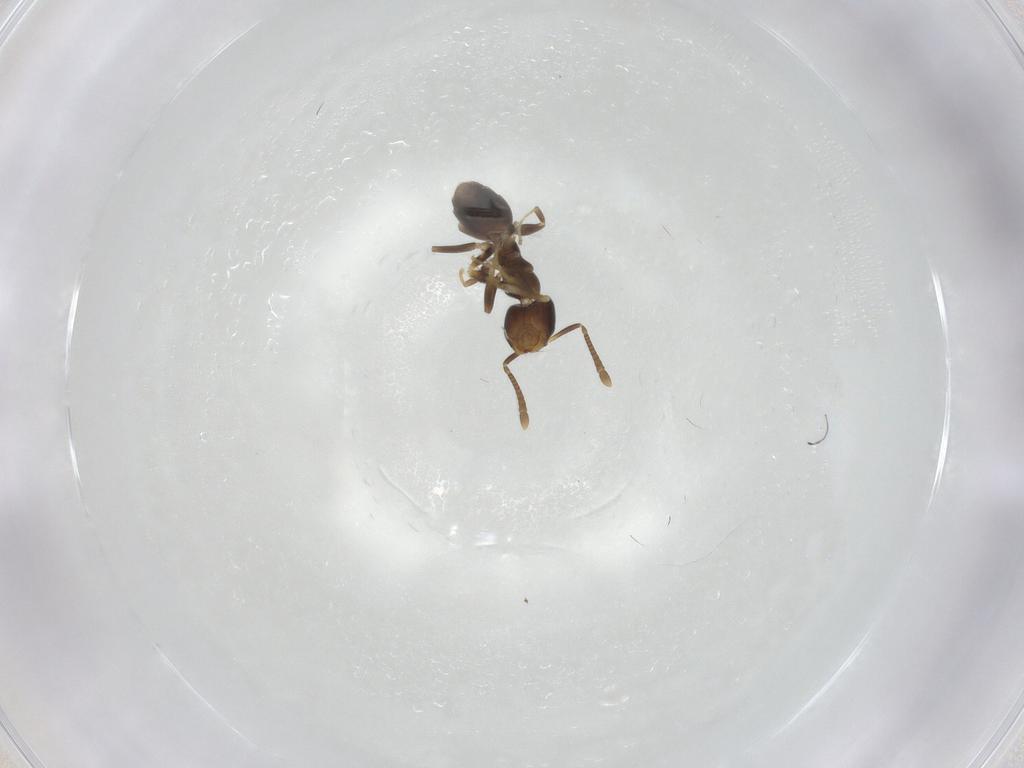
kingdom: Animalia
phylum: Arthropoda
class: Insecta
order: Hymenoptera
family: Formicidae
